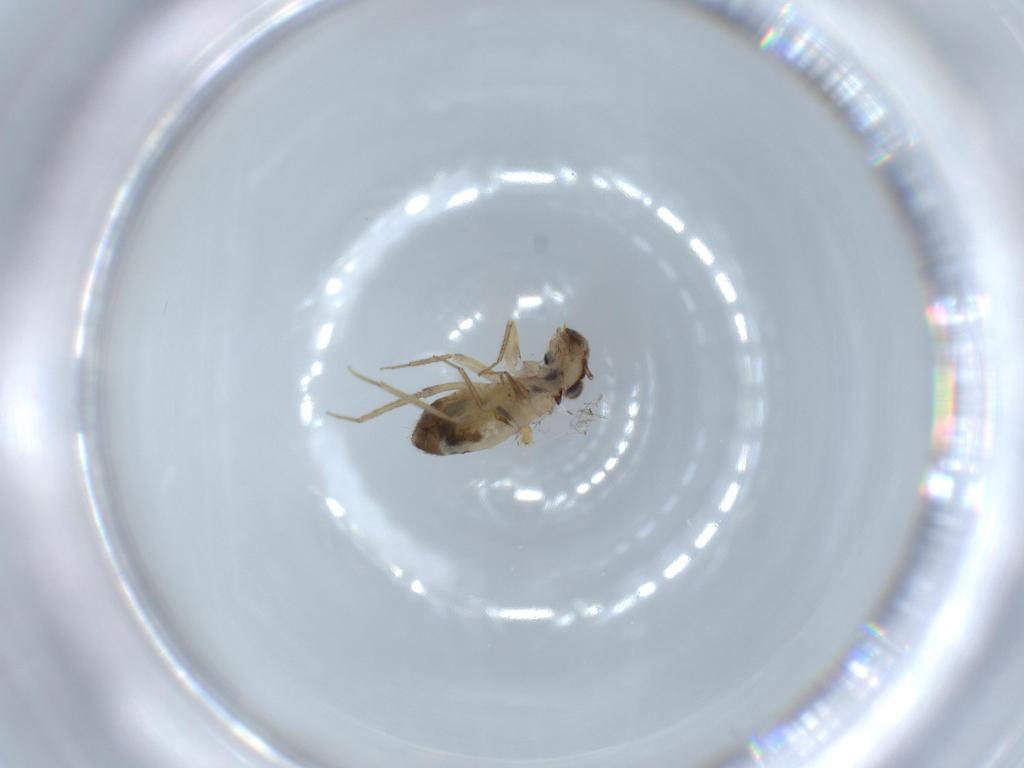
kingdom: Animalia
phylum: Arthropoda
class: Insecta
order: Psocodea
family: Lepidopsocidae
